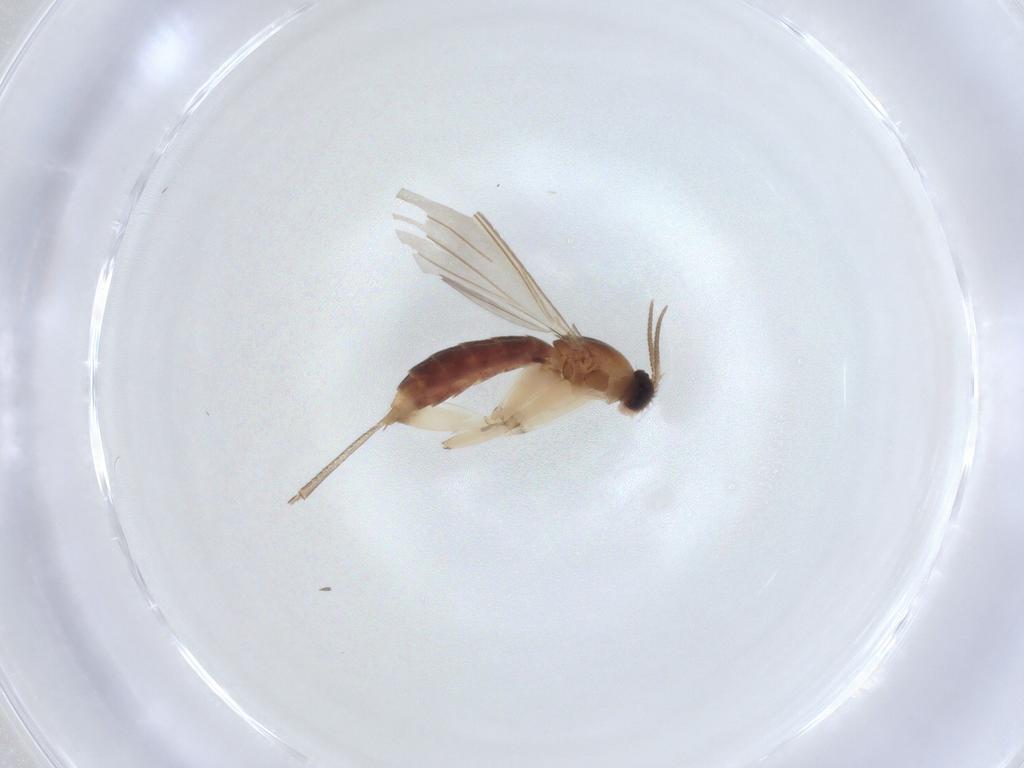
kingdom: Animalia
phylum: Arthropoda
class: Insecta
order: Diptera
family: Mycetophilidae
